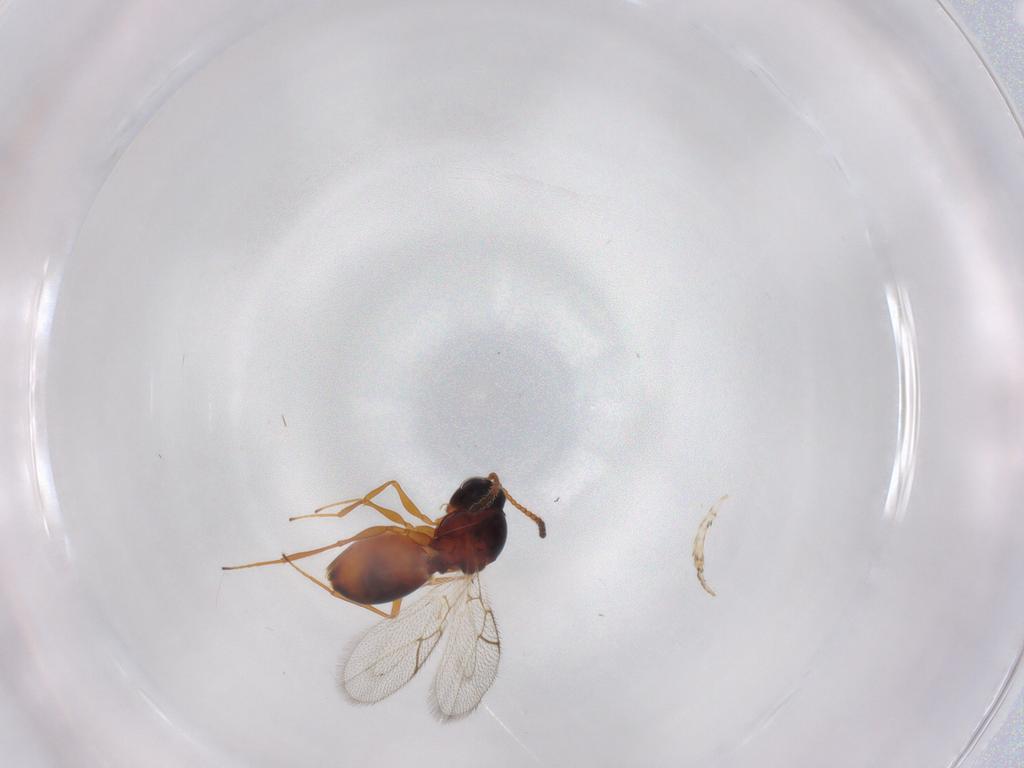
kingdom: Animalia
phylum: Arthropoda
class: Insecta
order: Hymenoptera
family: Figitidae
